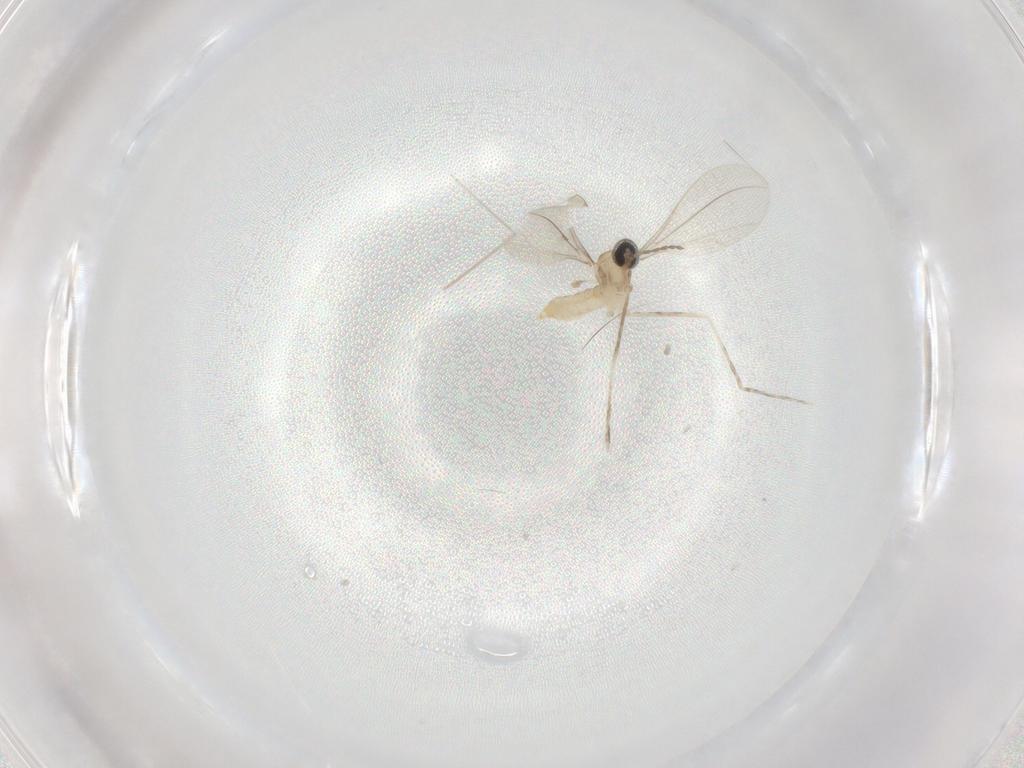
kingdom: Animalia
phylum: Arthropoda
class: Insecta
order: Diptera
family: Cecidomyiidae
